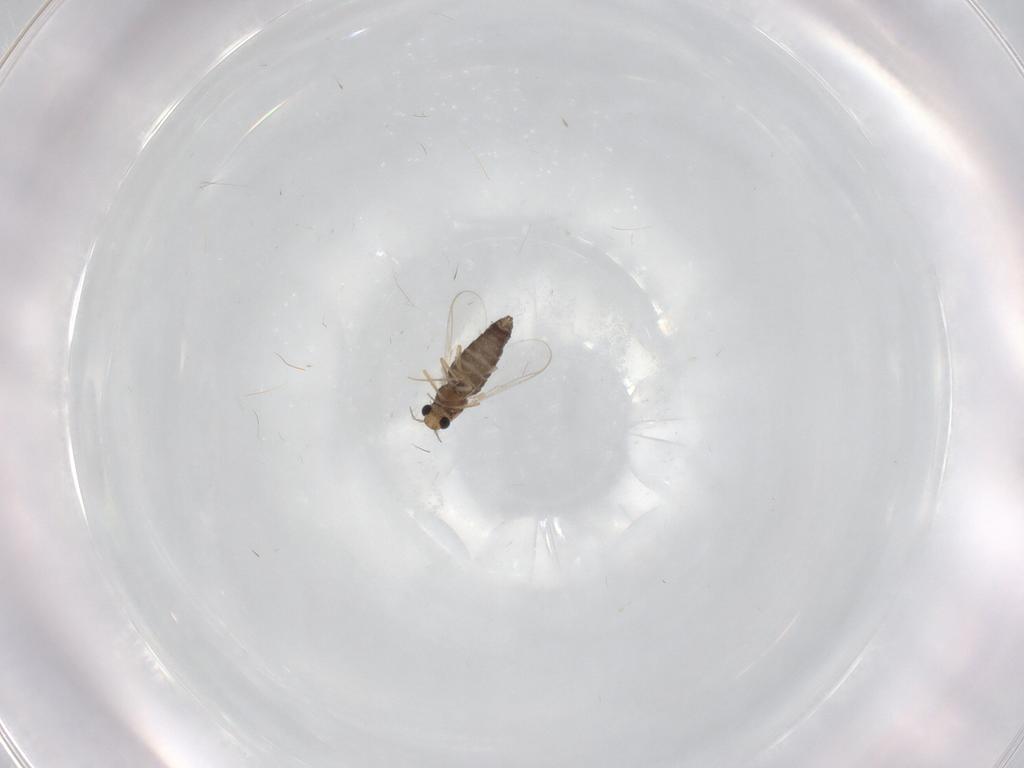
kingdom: Animalia
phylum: Arthropoda
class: Insecta
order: Diptera
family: Chironomidae
